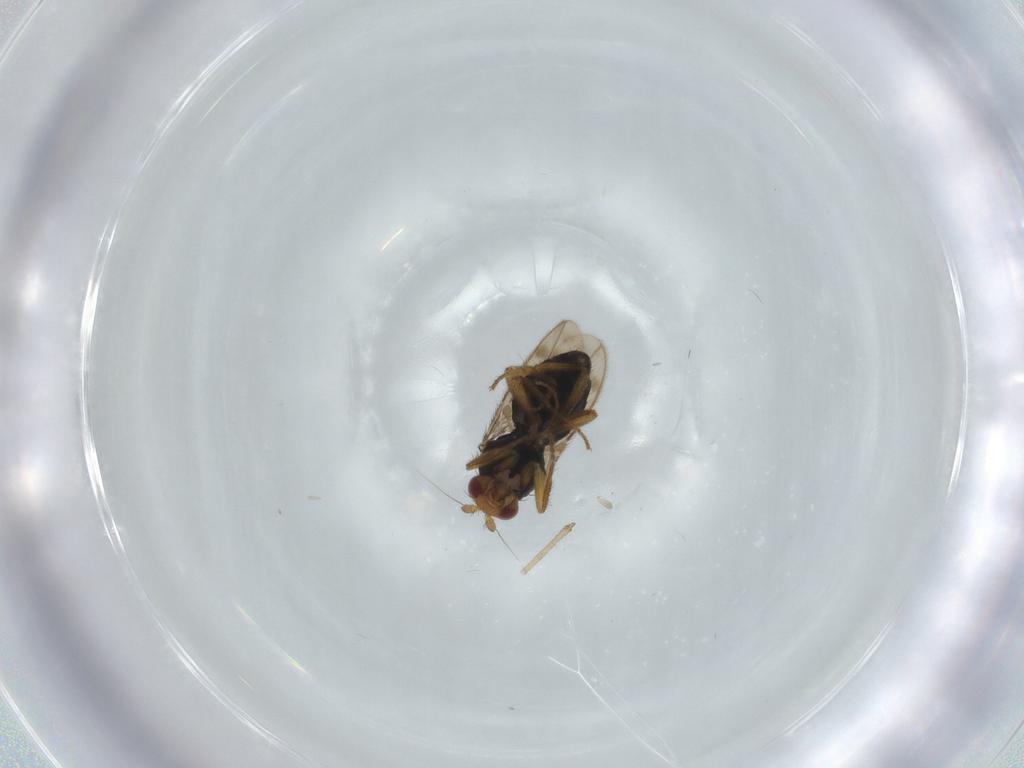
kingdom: Animalia
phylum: Arthropoda
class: Insecta
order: Diptera
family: Sphaeroceridae
